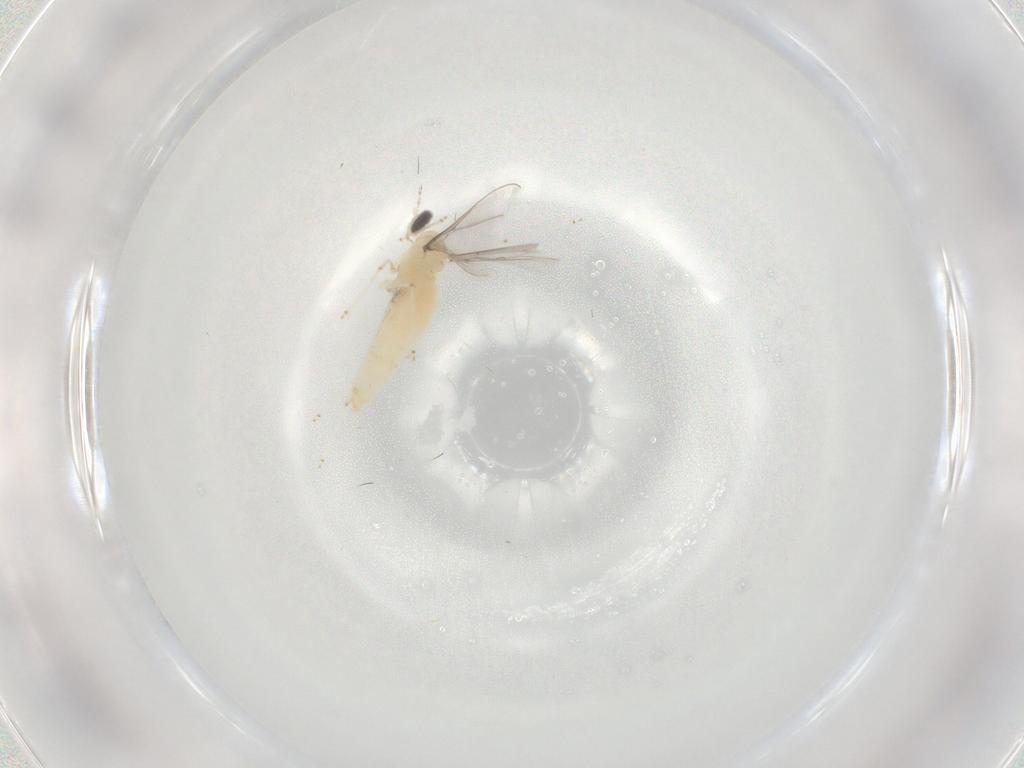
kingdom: Animalia
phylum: Arthropoda
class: Insecta
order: Diptera
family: Cecidomyiidae
